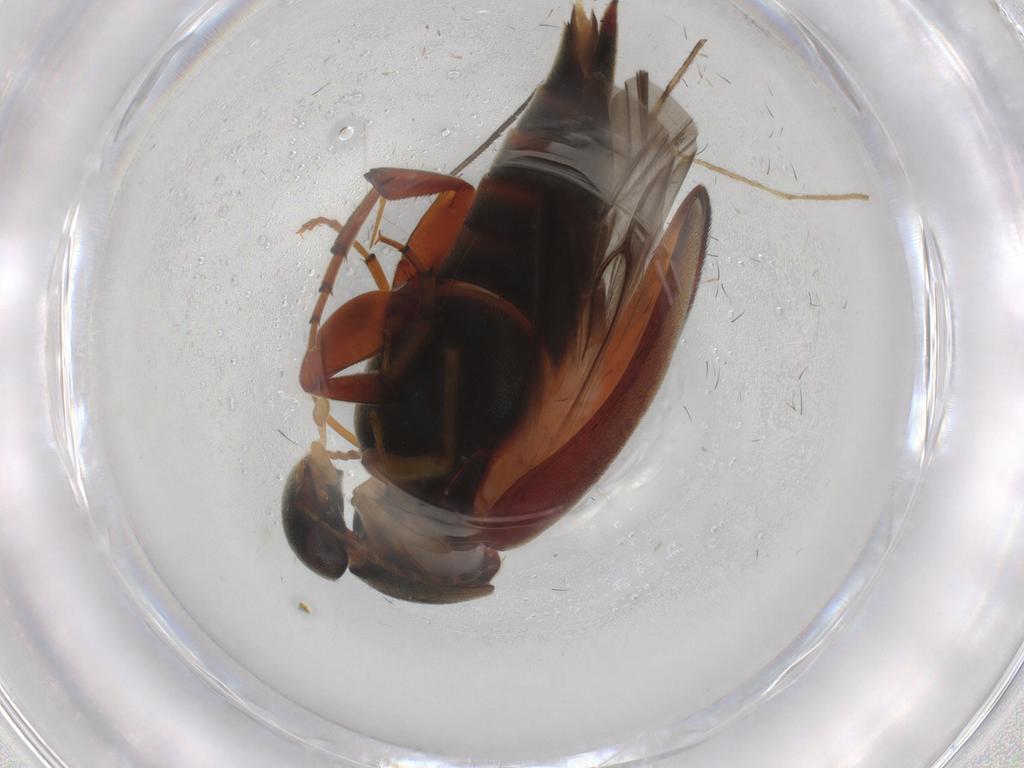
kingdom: Animalia
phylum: Arthropoda
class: Insecta
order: Coleoptera
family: Mordellidae
